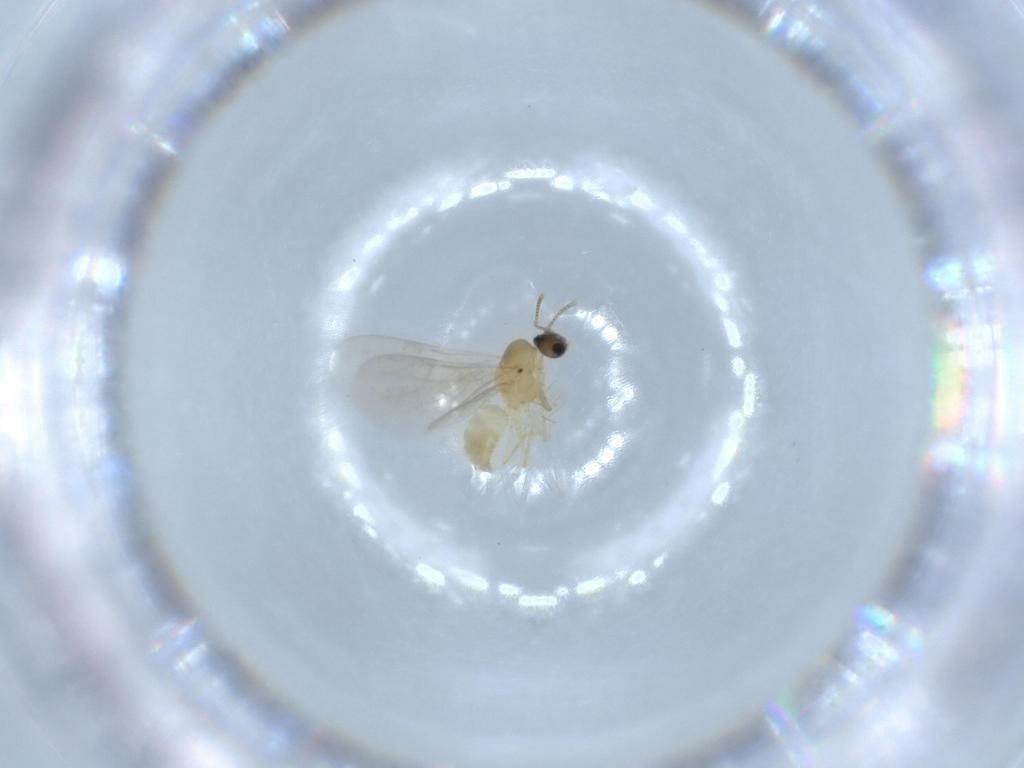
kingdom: Animalia
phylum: Arthropoda
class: Insecta
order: Hymenoptera
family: Formicidae
